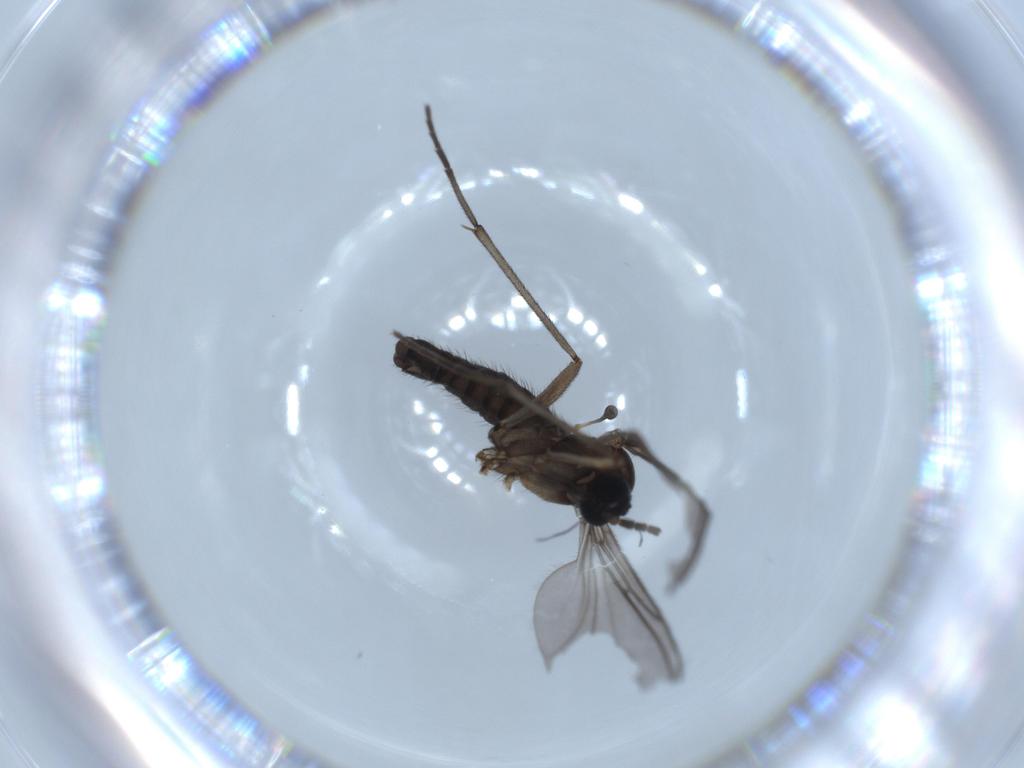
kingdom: Animalia
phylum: Arthropoda
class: Insecta
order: Diptera
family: Sciaridae
